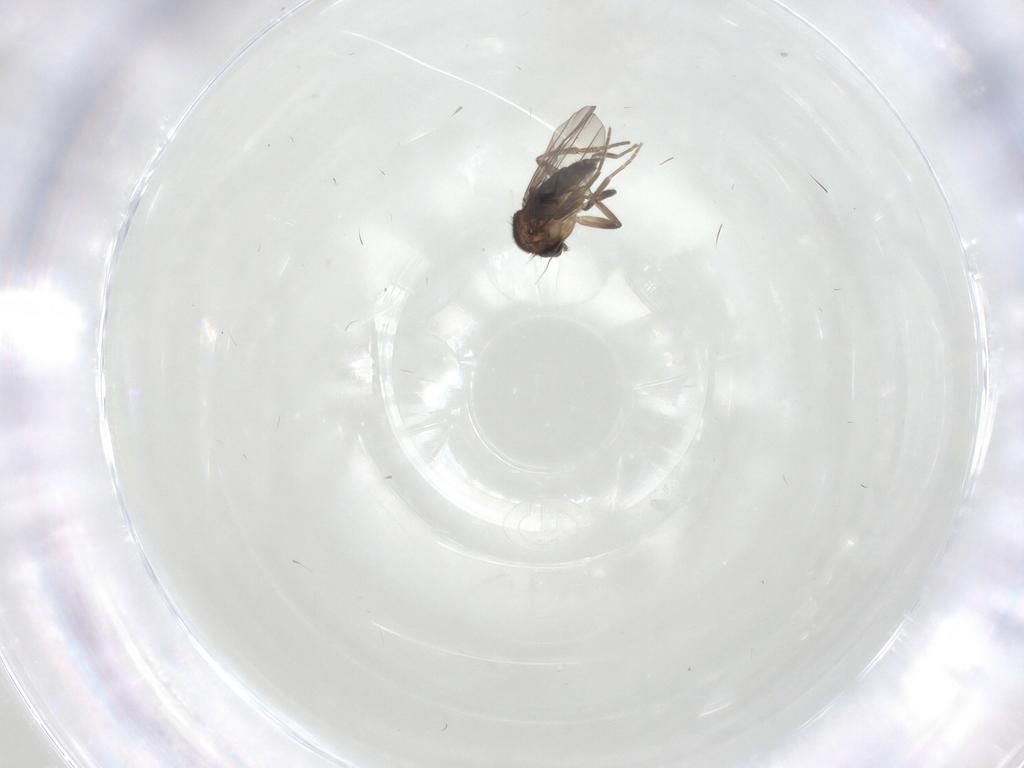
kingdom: Animalia
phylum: Arthropoda
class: Insecta
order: Diptera
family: Phoridae
